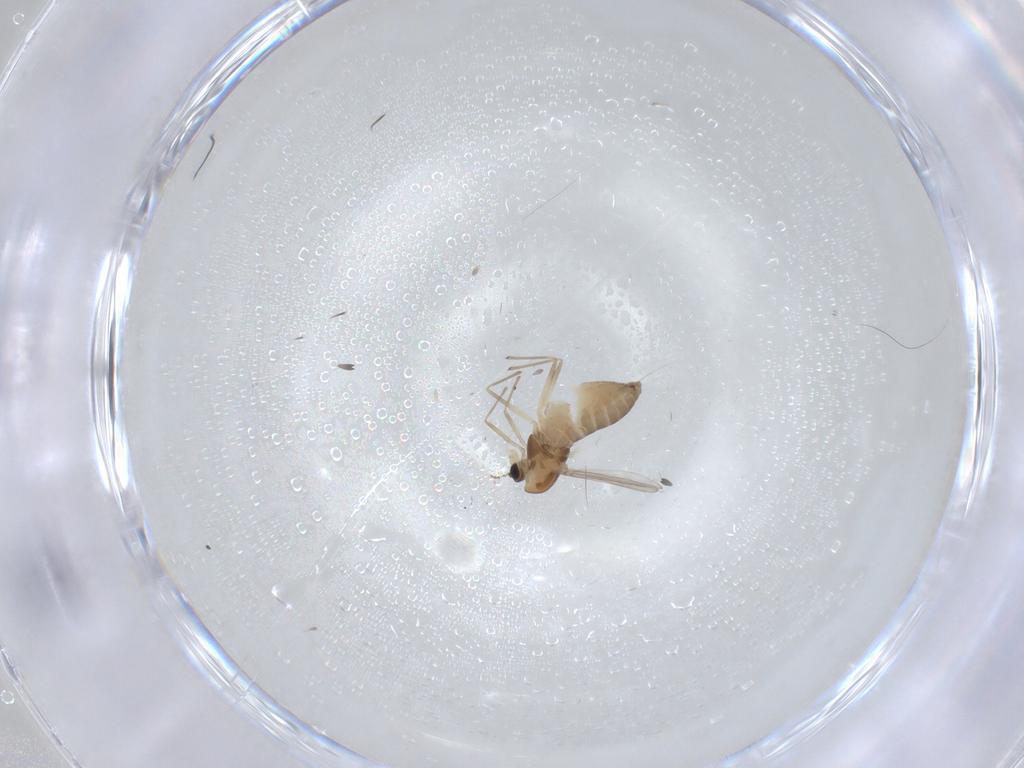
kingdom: Animalia
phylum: Arthropoda
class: Insecta
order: Diptera
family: Chironomidae
